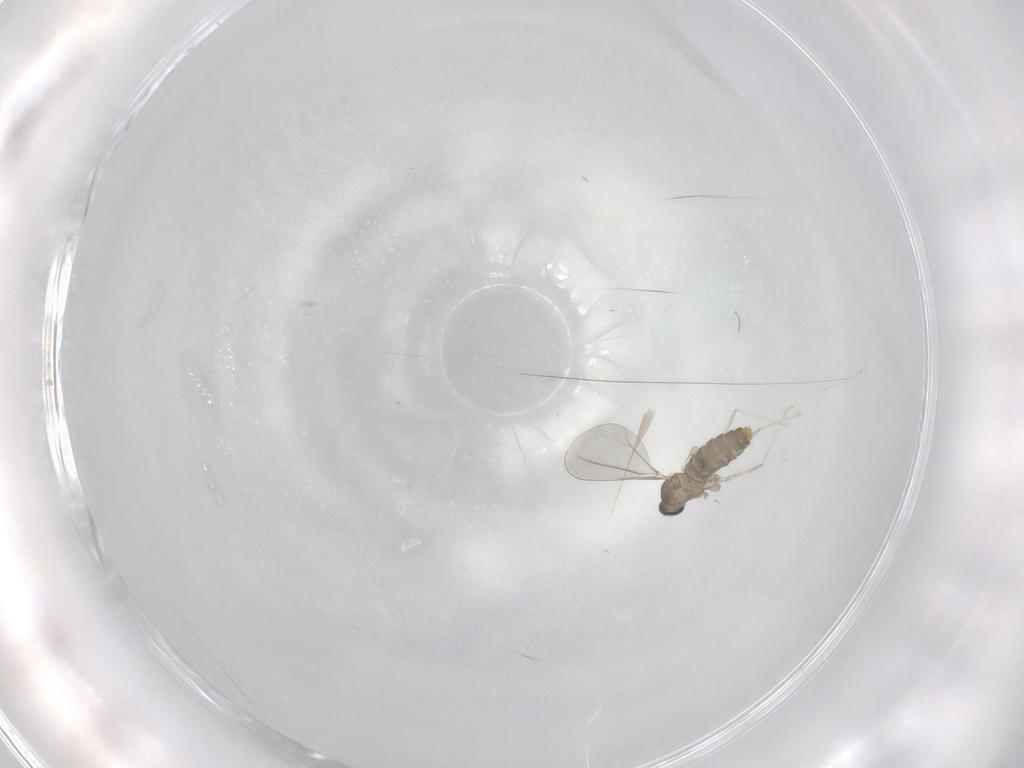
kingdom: Animalia
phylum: Arthropoda
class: Insecta
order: Diptera
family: Cecidomyiidae
